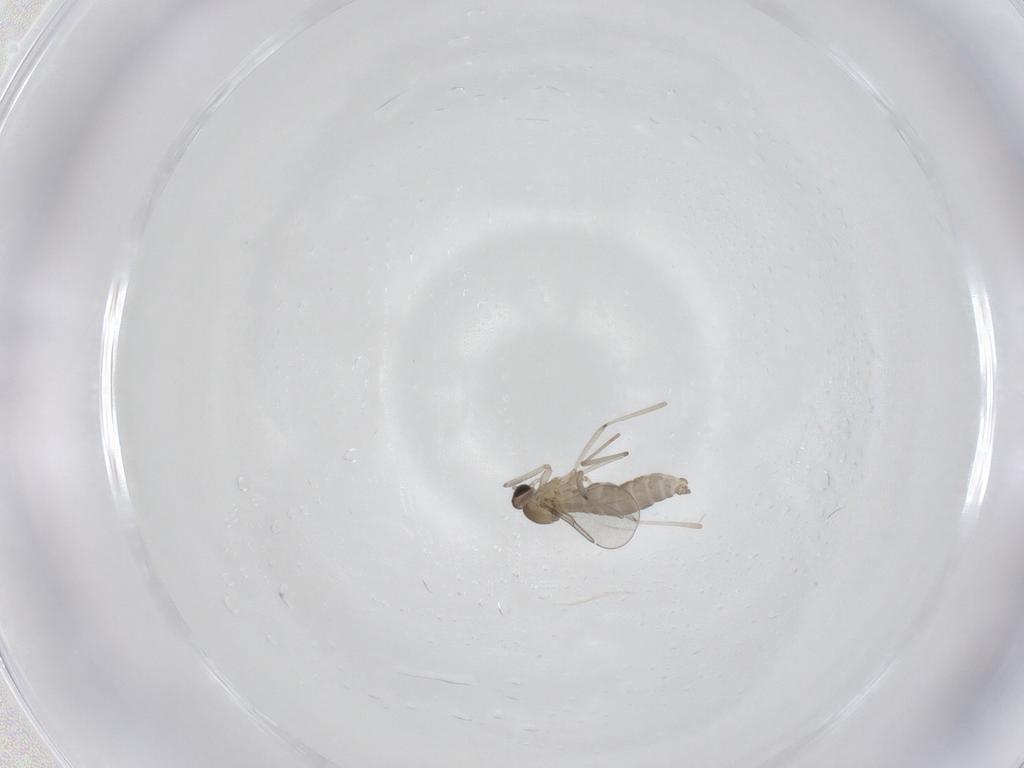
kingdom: Animalia
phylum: Arthropoda
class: Insecta
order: Diptera
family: Cecidomyiidae
